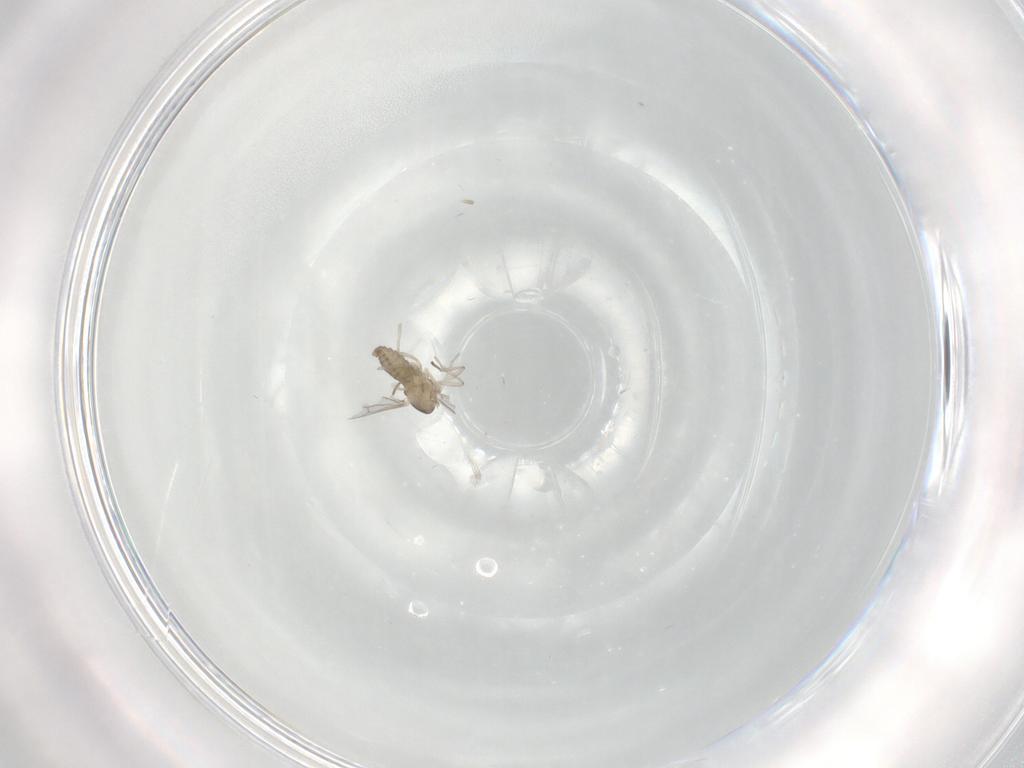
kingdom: Animalia
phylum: Arthropoda
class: Insecta
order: Diptera
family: Cecidomyiidae
